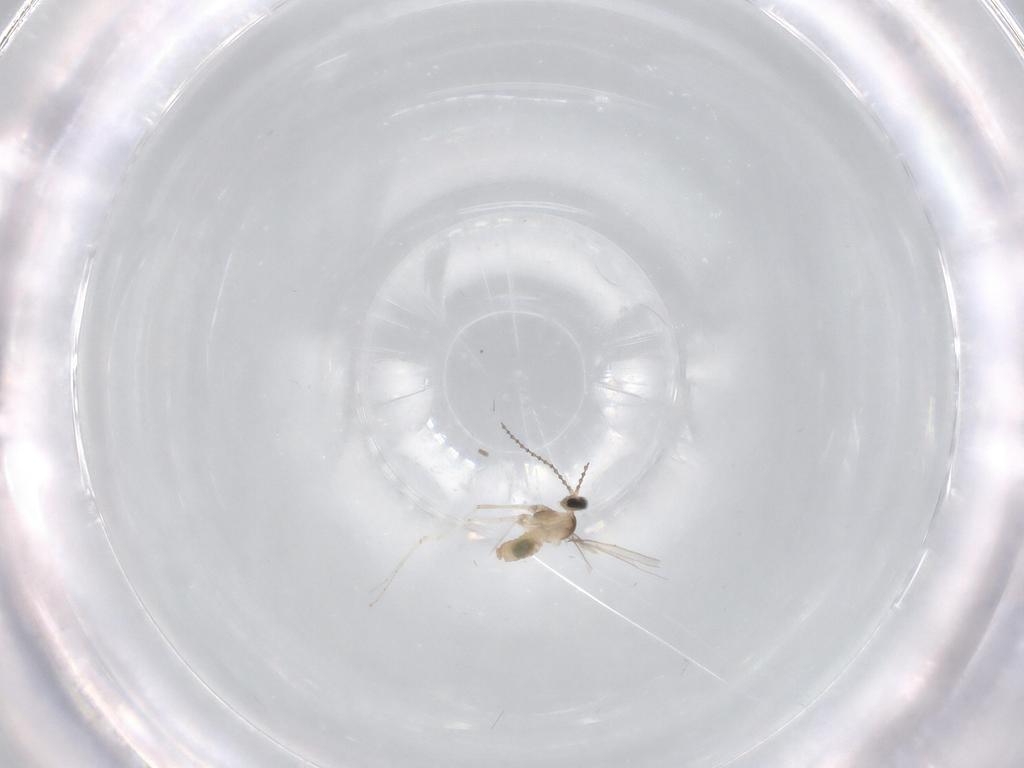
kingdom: Animalia
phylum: Arthropoda
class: Insecta
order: Diptera
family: Cecidomyiidae
